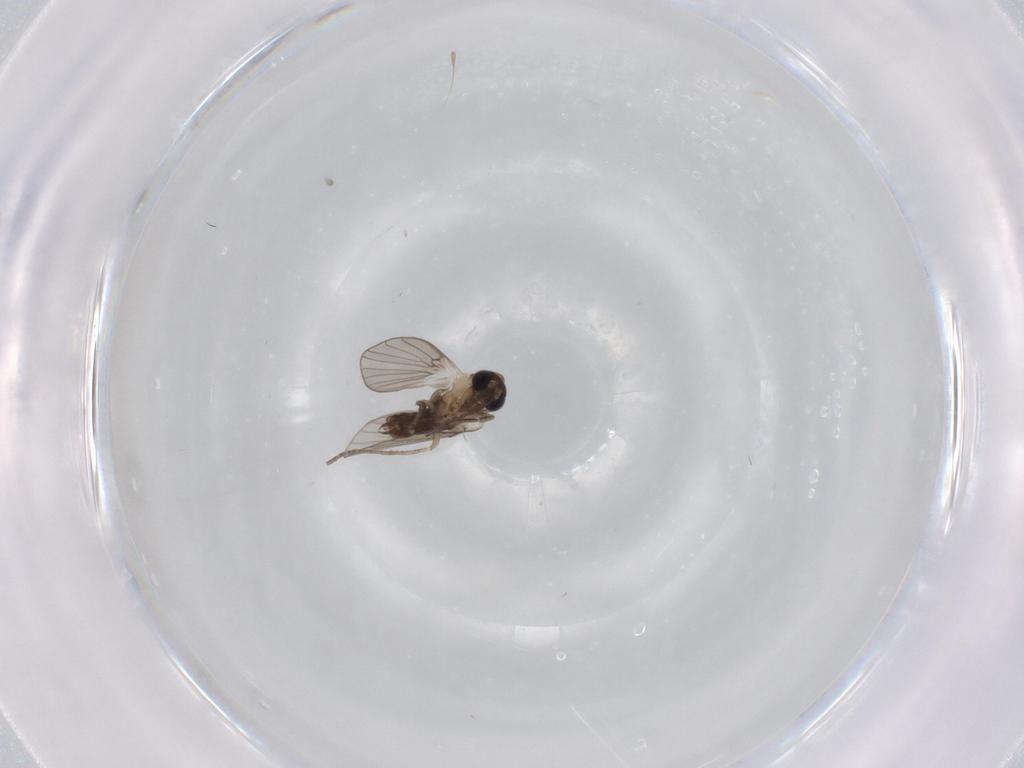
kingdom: Animalia
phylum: Arthropoda
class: Insecta
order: Diptera
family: Psychodidae
